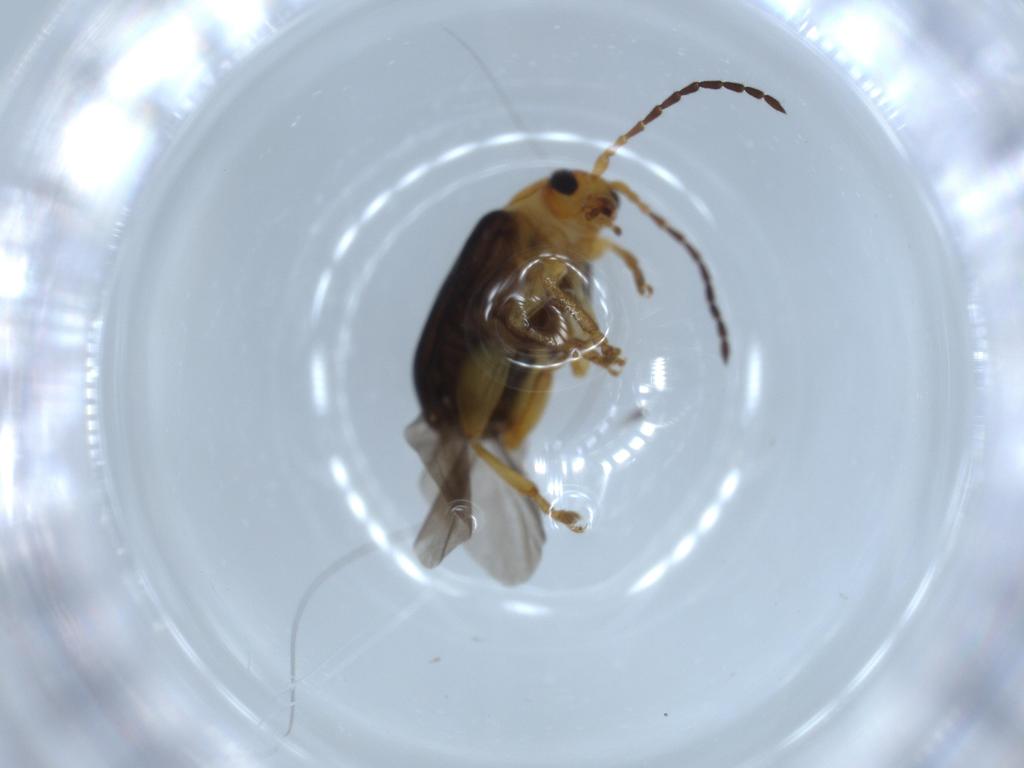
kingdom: Animalia
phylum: Arthropoda
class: Insecta
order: Coleoptera
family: Chrysomelidae
